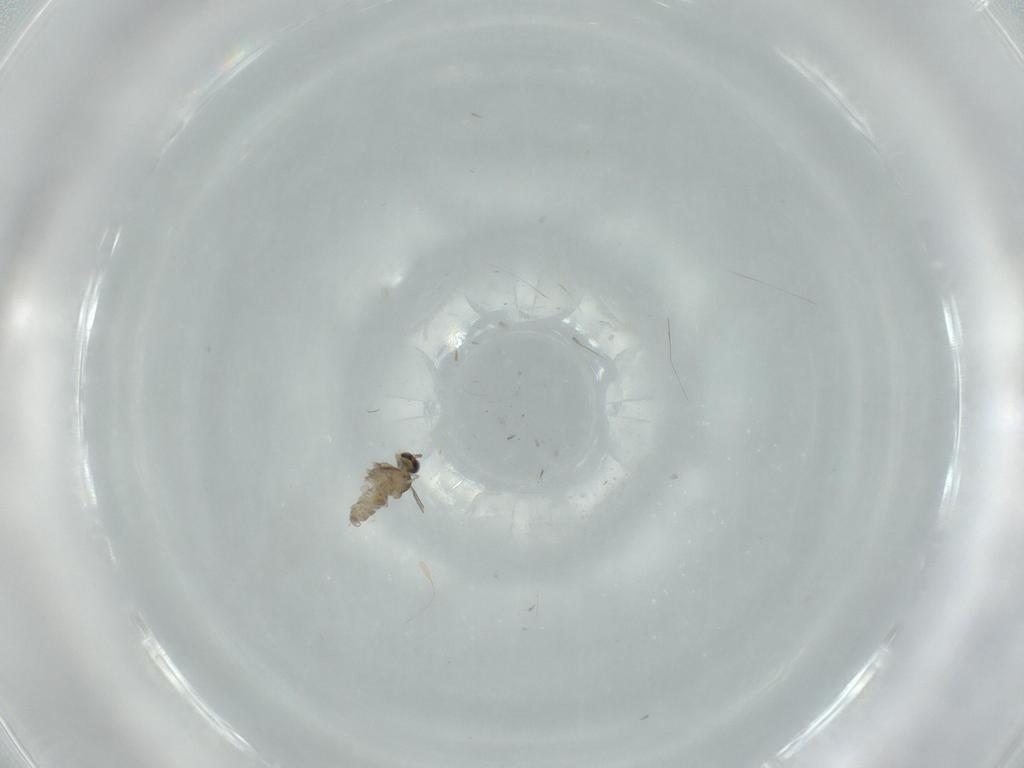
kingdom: Animalia
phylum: Arthropoda
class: Insecta
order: Diptera
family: Cecidomyiidae
